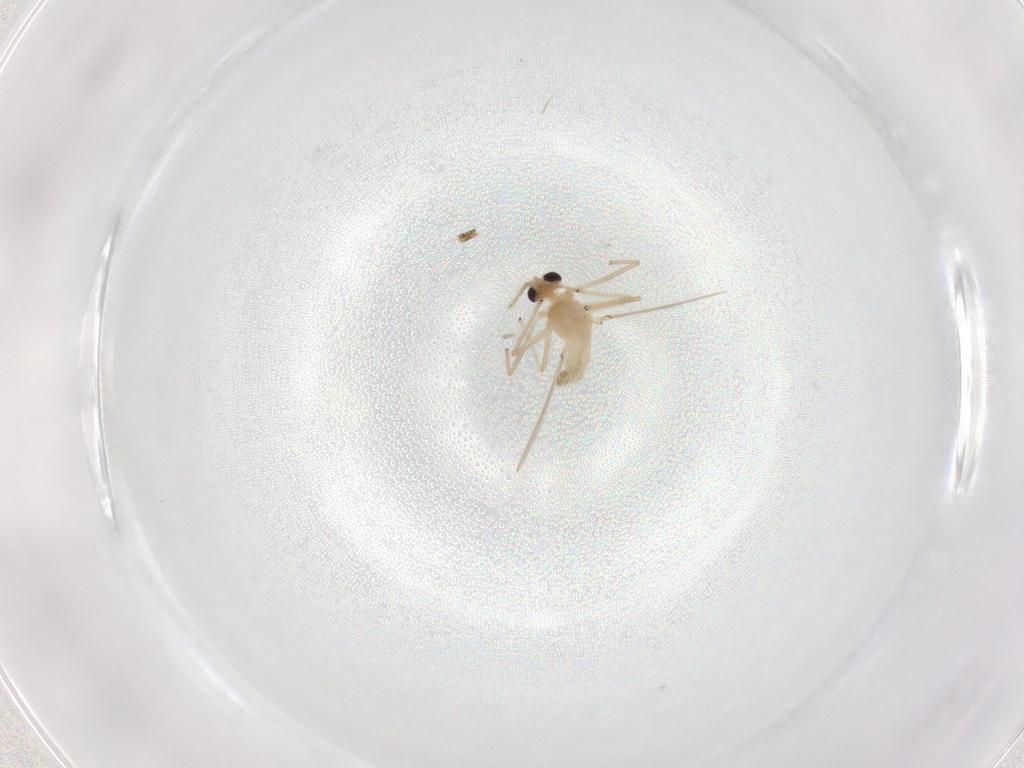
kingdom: Animalia
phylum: Arthropoda
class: Insecta
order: Diptera
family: Chironomidae
